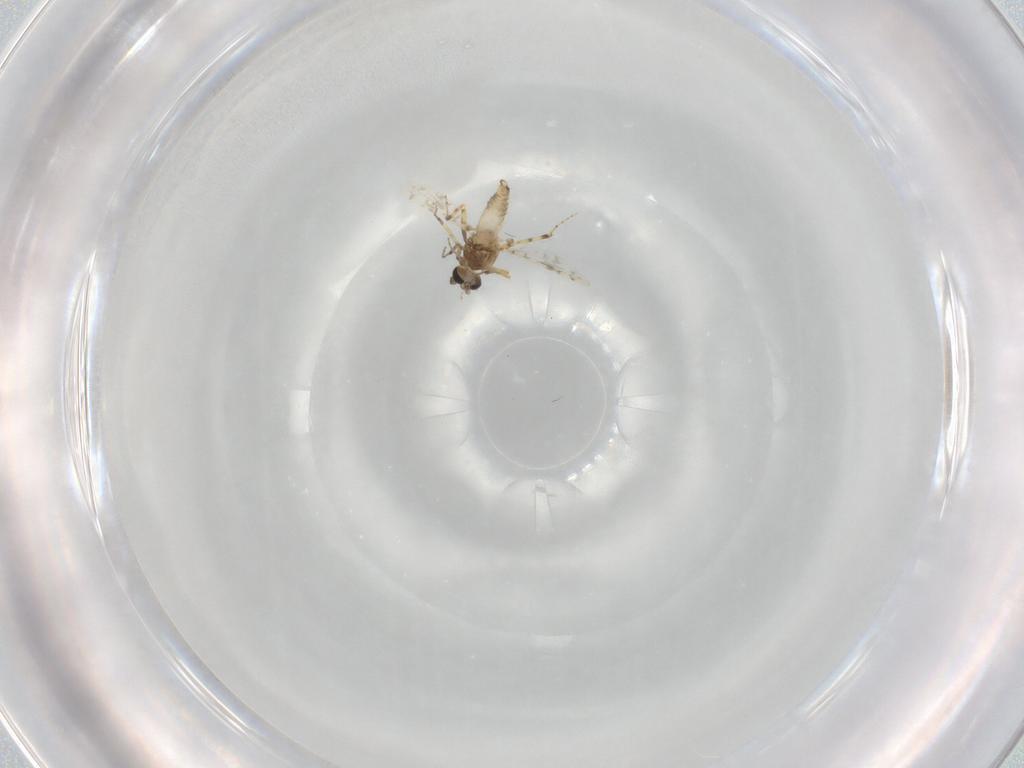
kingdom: Animalia
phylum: Arthropoda
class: Insecta
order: Diptera
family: Ceratopogonidae
